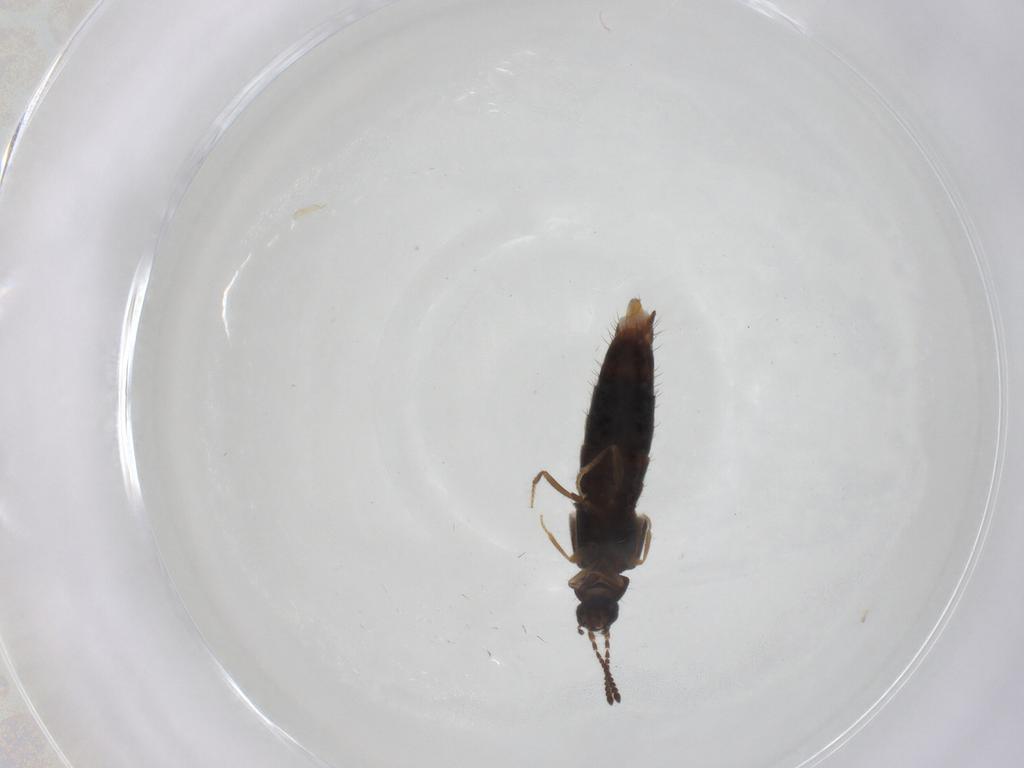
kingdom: Animalia
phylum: Arthropoda
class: Insecta
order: Coleoptera
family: Staphylinidae
